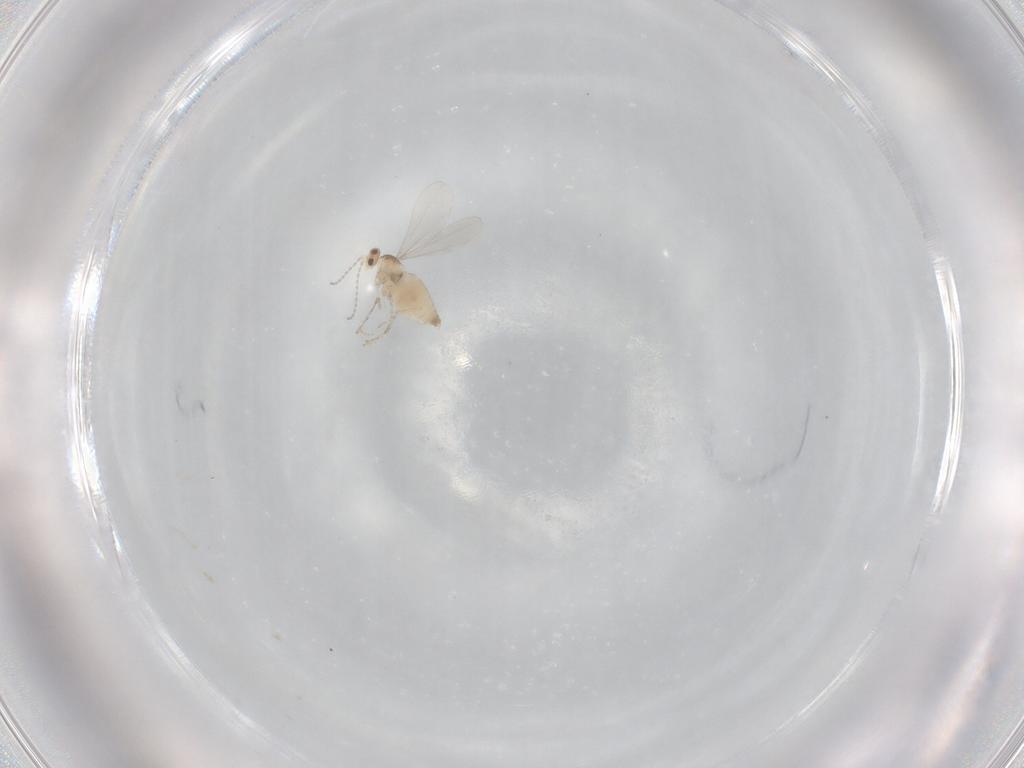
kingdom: Animalia
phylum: Arthropoda
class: Insecta
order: Diptera
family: Cecidomyiidae
